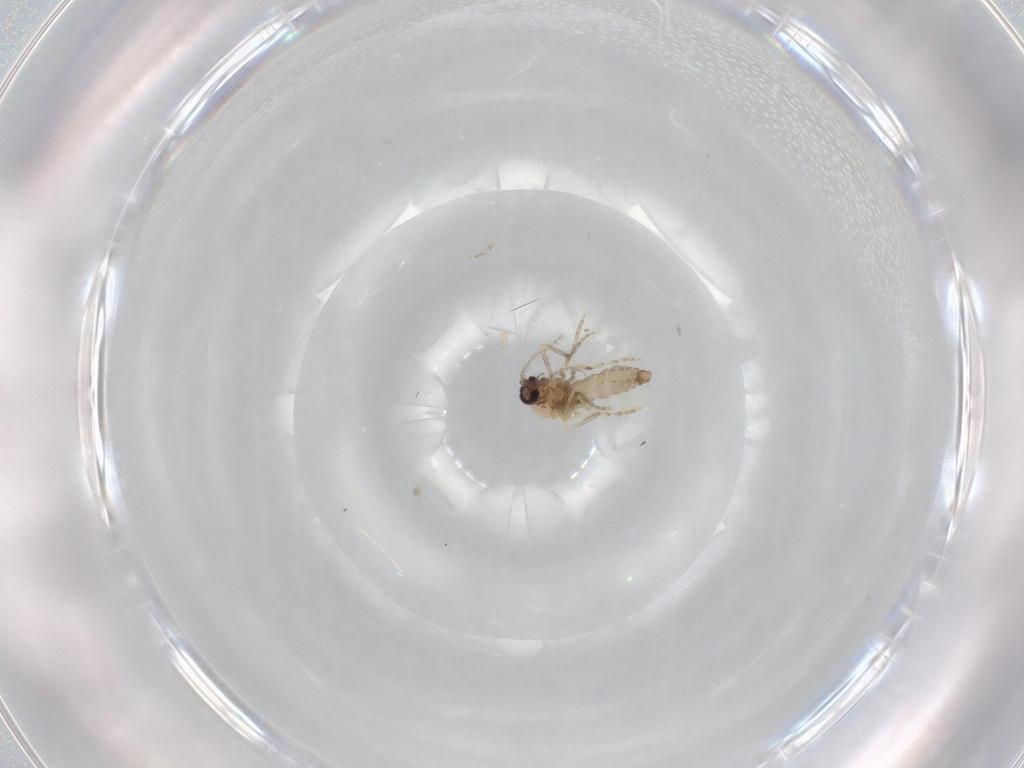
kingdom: Animalia
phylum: Arthropoda
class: Insecta
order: Diptera
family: Ceratopogonidae
